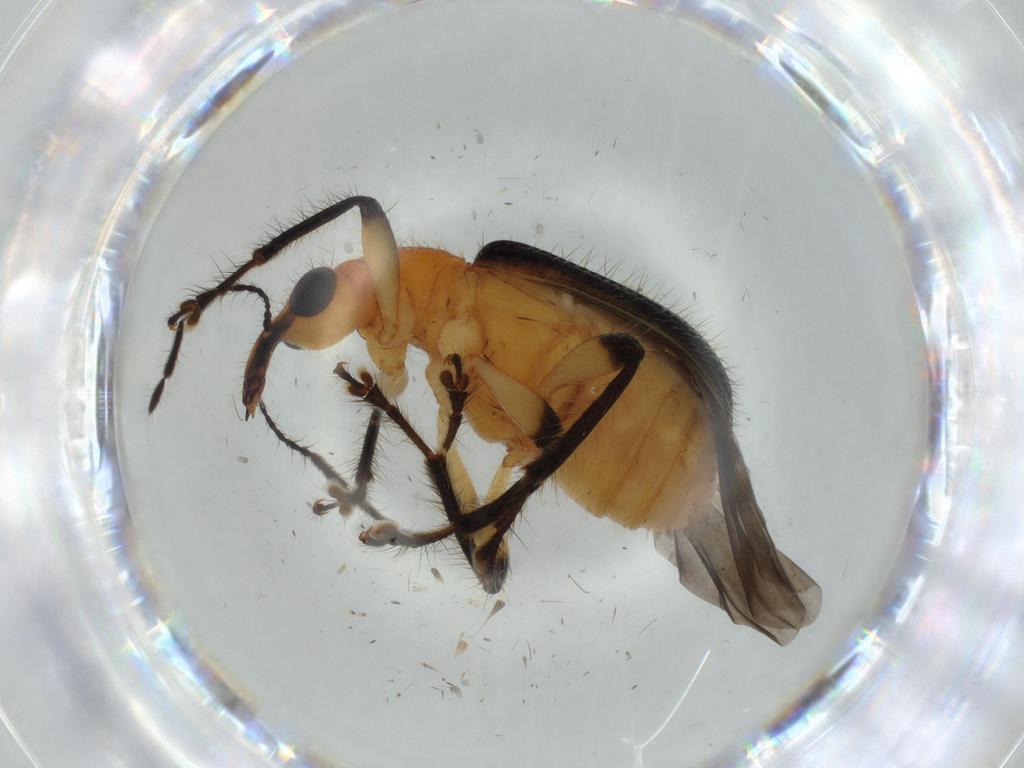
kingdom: Animalia
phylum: Arthropoda
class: Insecta
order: Coleoptera
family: Attelabidae
